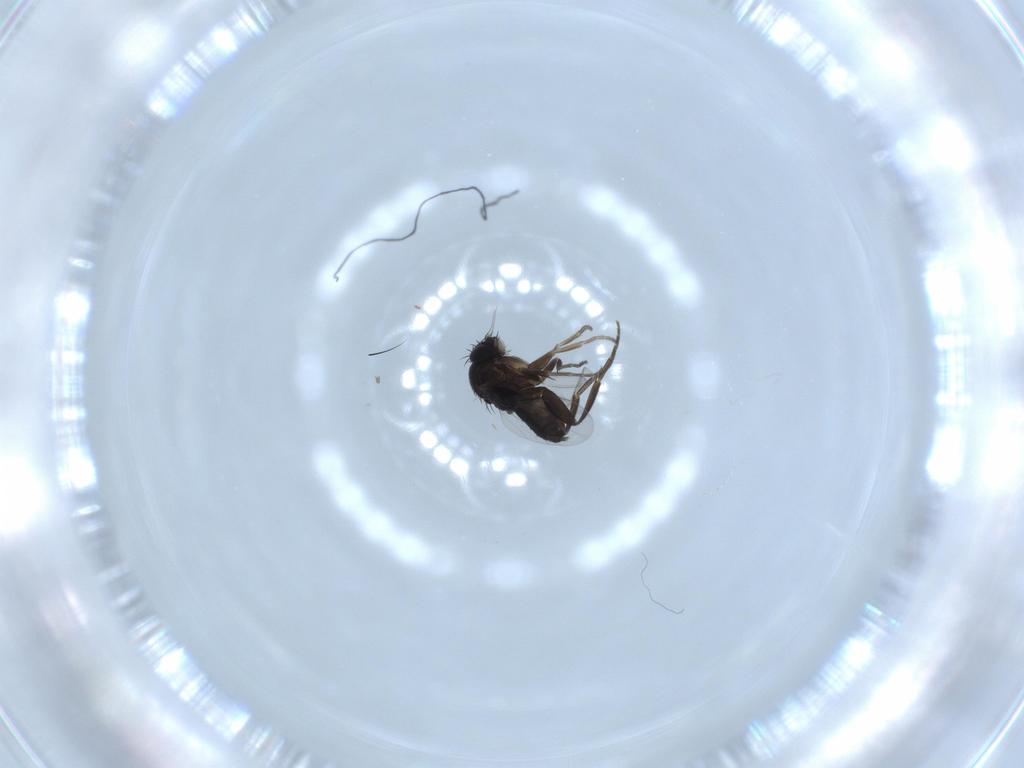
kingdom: Animalia
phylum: Arthropoda
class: Insecta
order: Diptera
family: Phoridae
